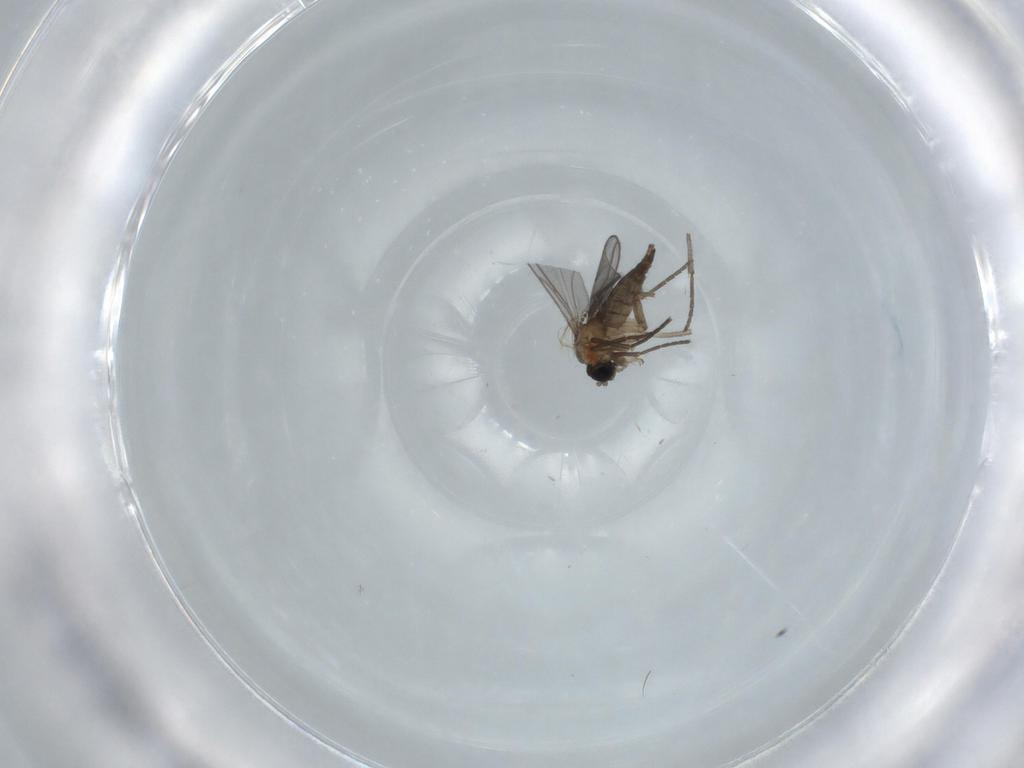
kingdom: Animalia
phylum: Arthropoda
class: Insecta
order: Diptera
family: Sciaridae
